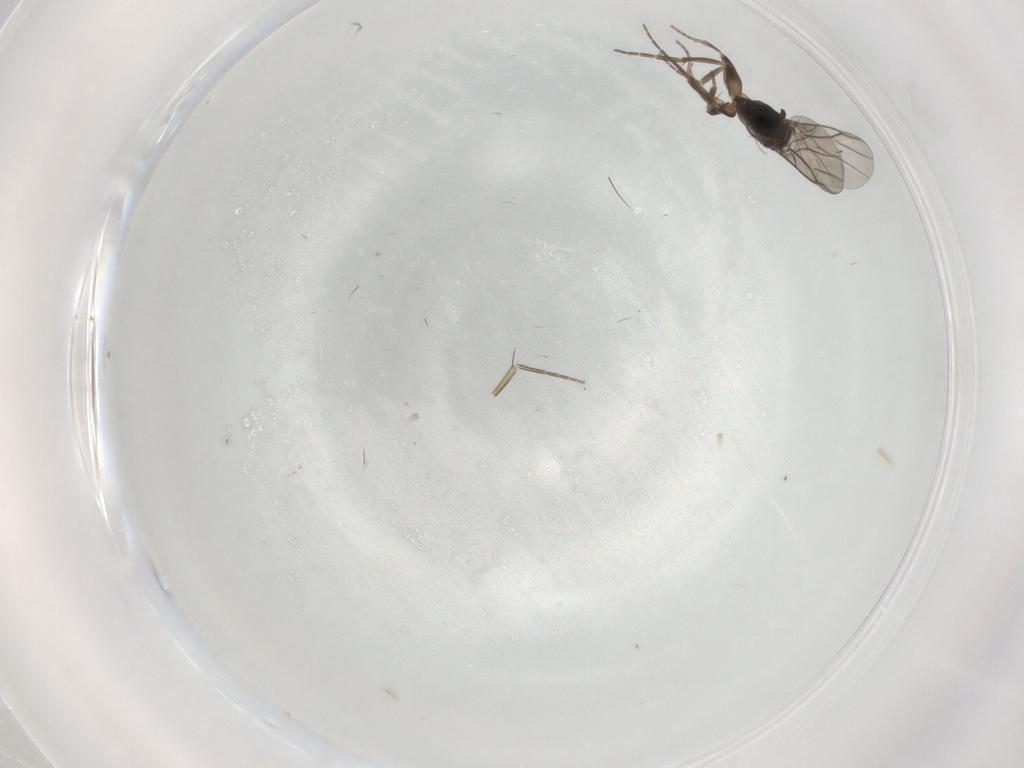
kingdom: Animalia
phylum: Arthropoda
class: Insecta
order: Diptera
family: Phoridae
